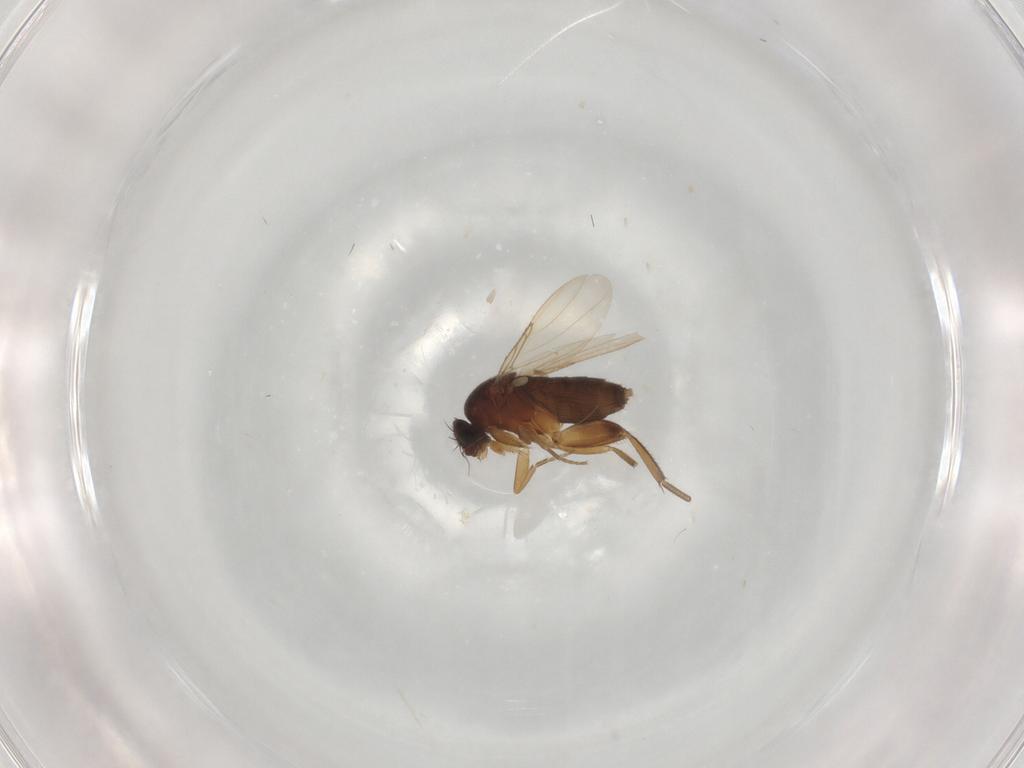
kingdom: Animalia
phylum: Arthropoda
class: Insecta
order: Diptera
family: Phoridae
